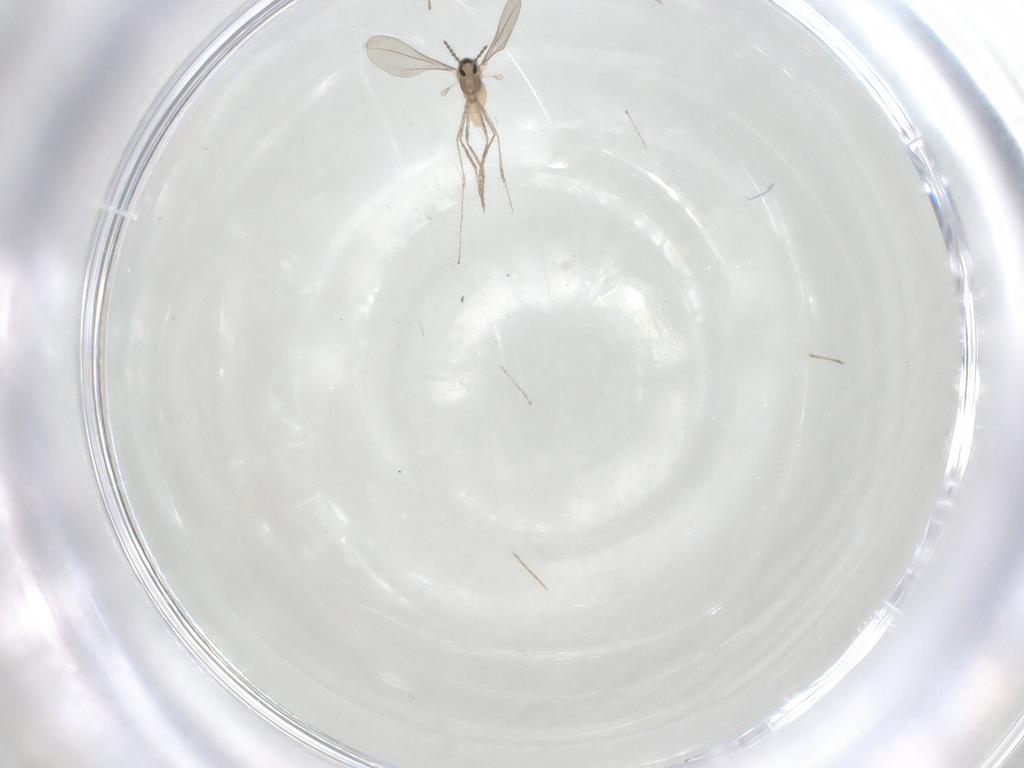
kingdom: Animalia
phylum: Arthropoda
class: Insecta
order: Diptera
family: Cecidomyiidae
